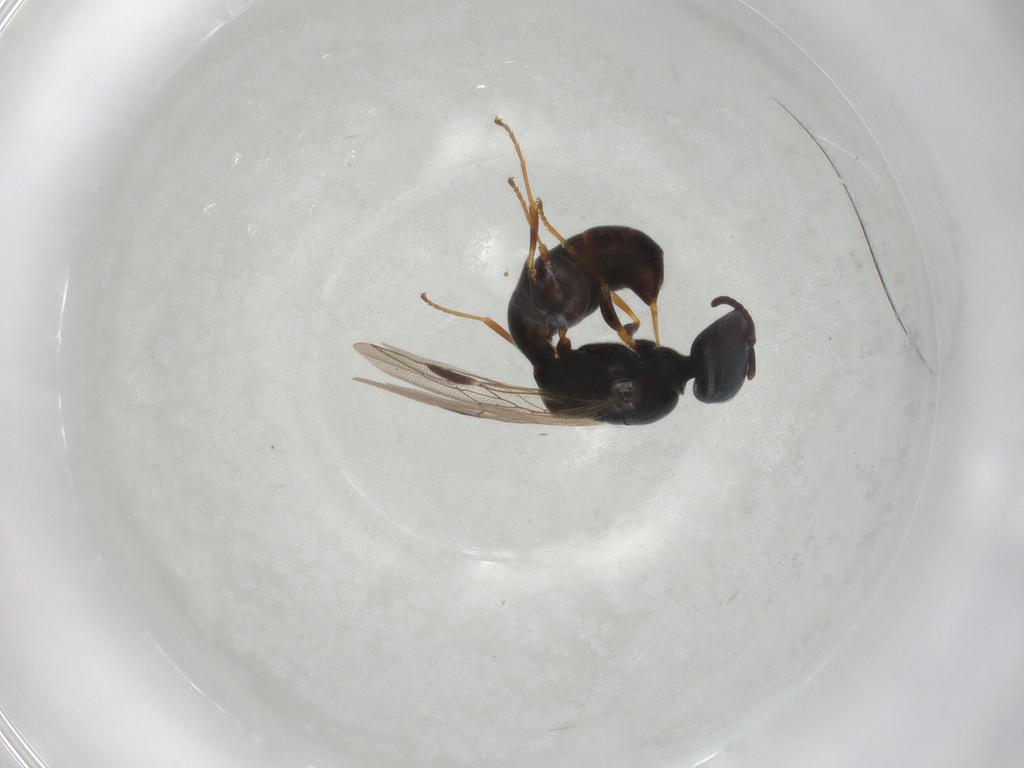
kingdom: Animalia
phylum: Arthropoda
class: Insecta
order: Hymenoptera
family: Pemphredonidae
